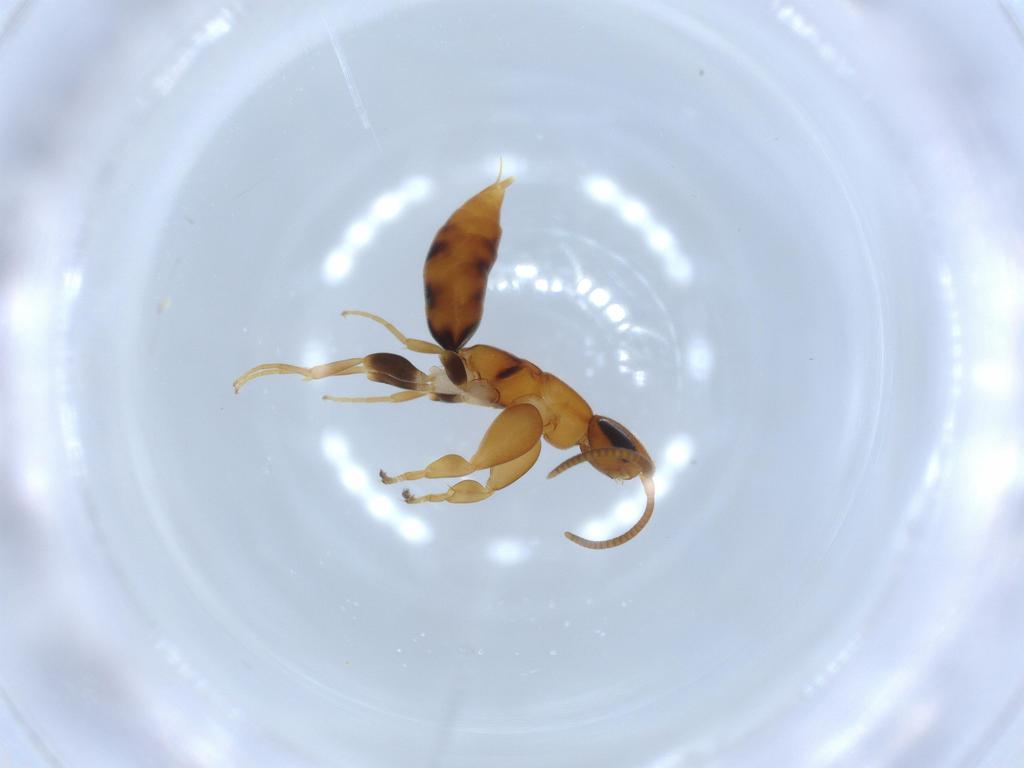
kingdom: Animalia
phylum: Arthropoda
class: Insecta
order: Hymenoptera
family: Sclerogibbidae
